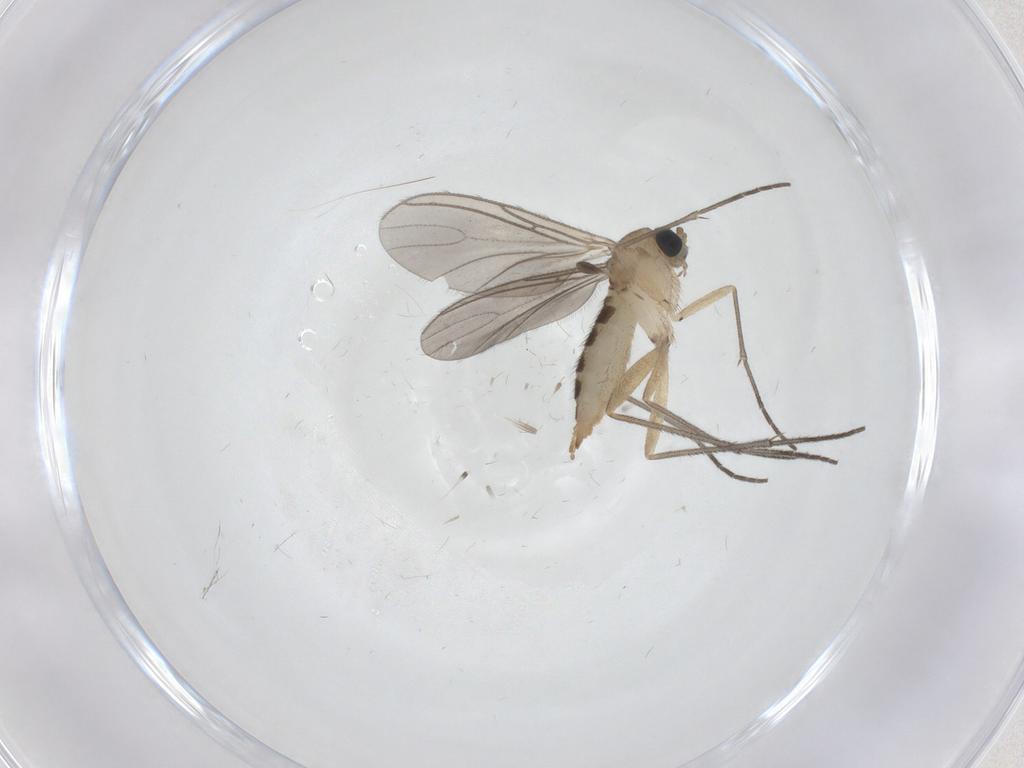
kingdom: Animalia
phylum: Arthropoda
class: Insecta
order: Diptera
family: Sciaridae
